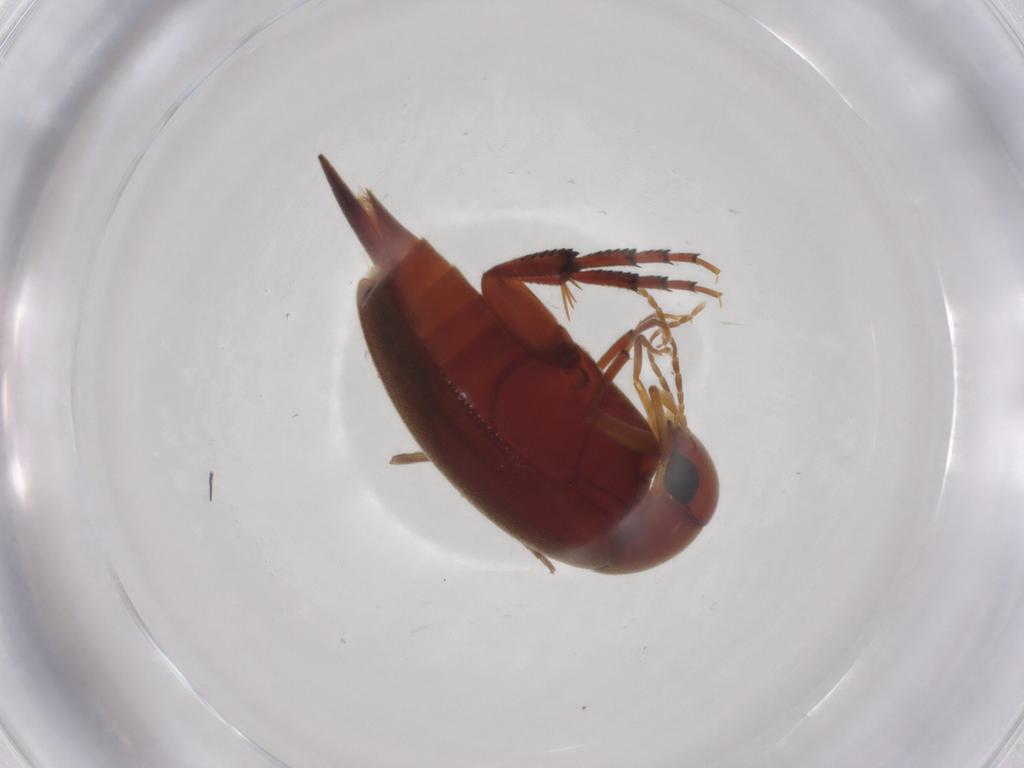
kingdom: Animalia
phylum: Arthropoda
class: Insecta
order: Coleoptera
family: Mordellidae
